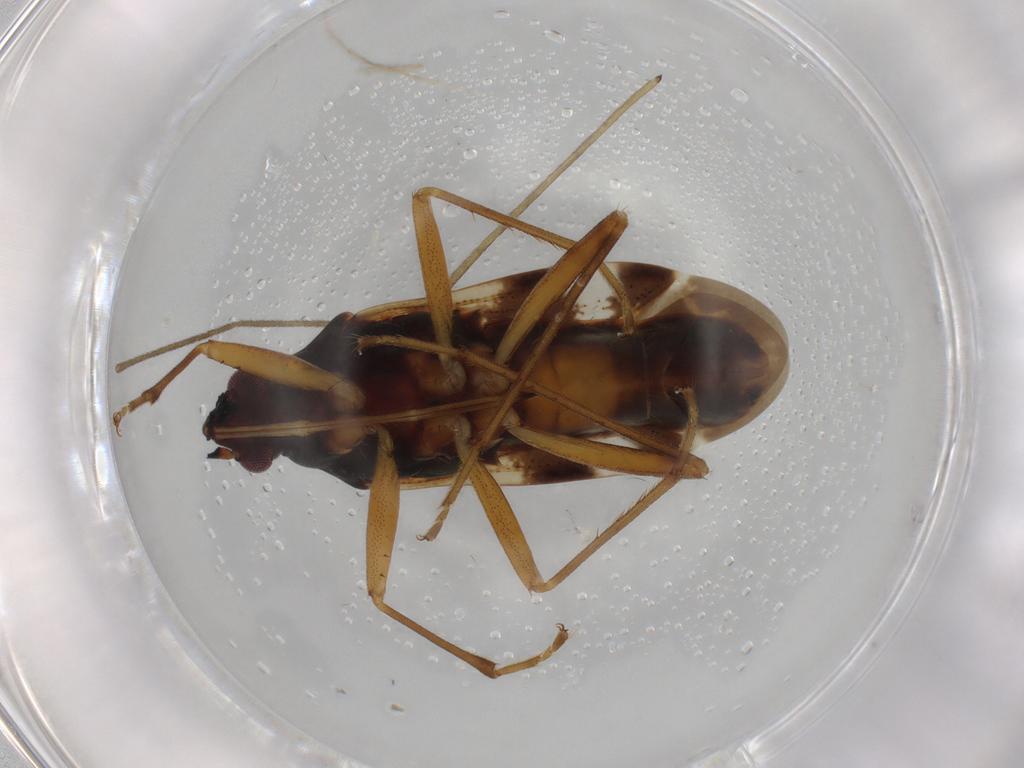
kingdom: Animalia
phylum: Arthropoda
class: Insecta
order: Hemiptera
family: Rhyparochromidae
